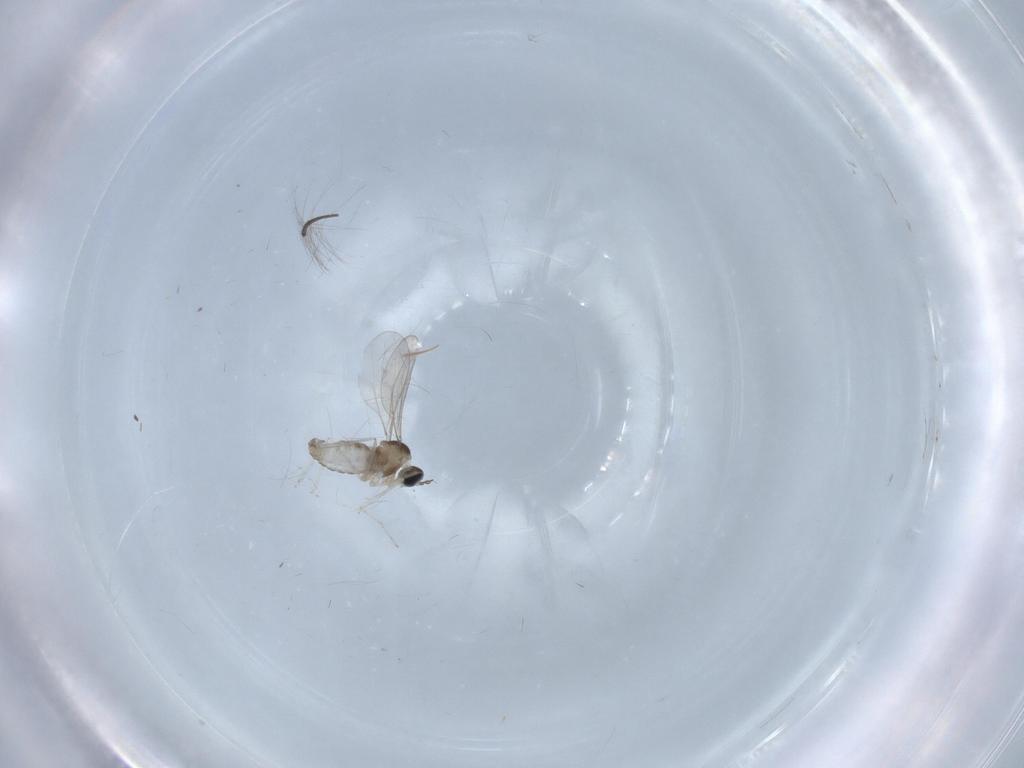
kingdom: Animalia
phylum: Arthropoda
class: Insecta
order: Diptera
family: Cecidomyiidae
